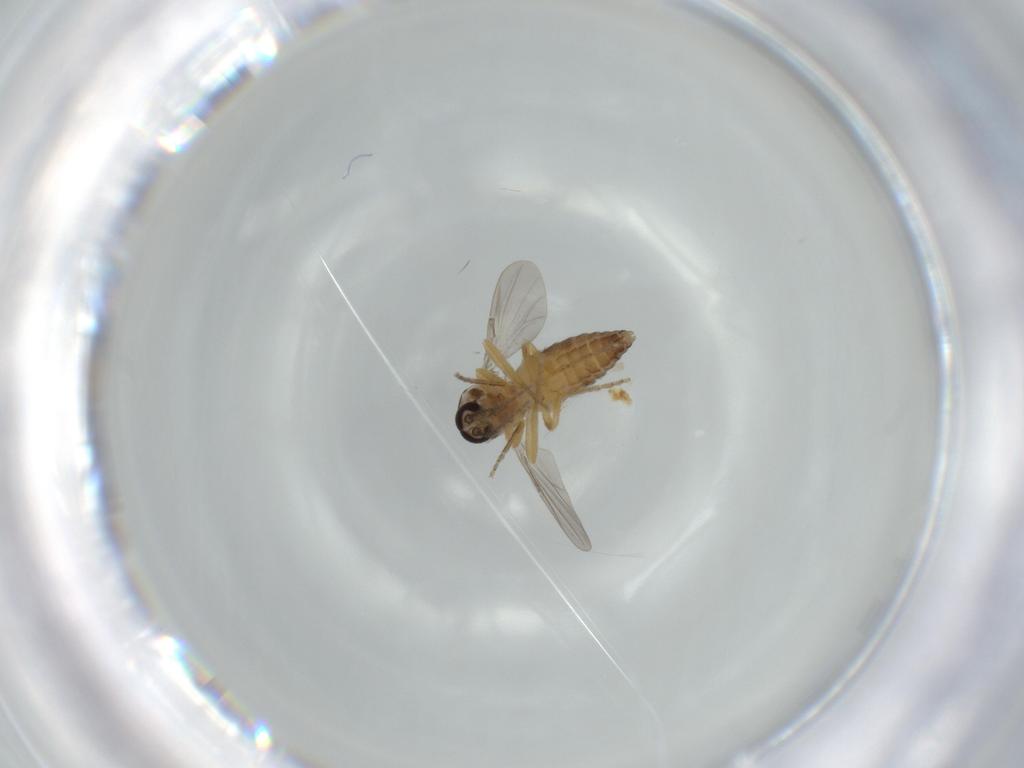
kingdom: Animalia
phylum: Arthropoda
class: Insecta
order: Diptera
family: Ceratopogonidae
